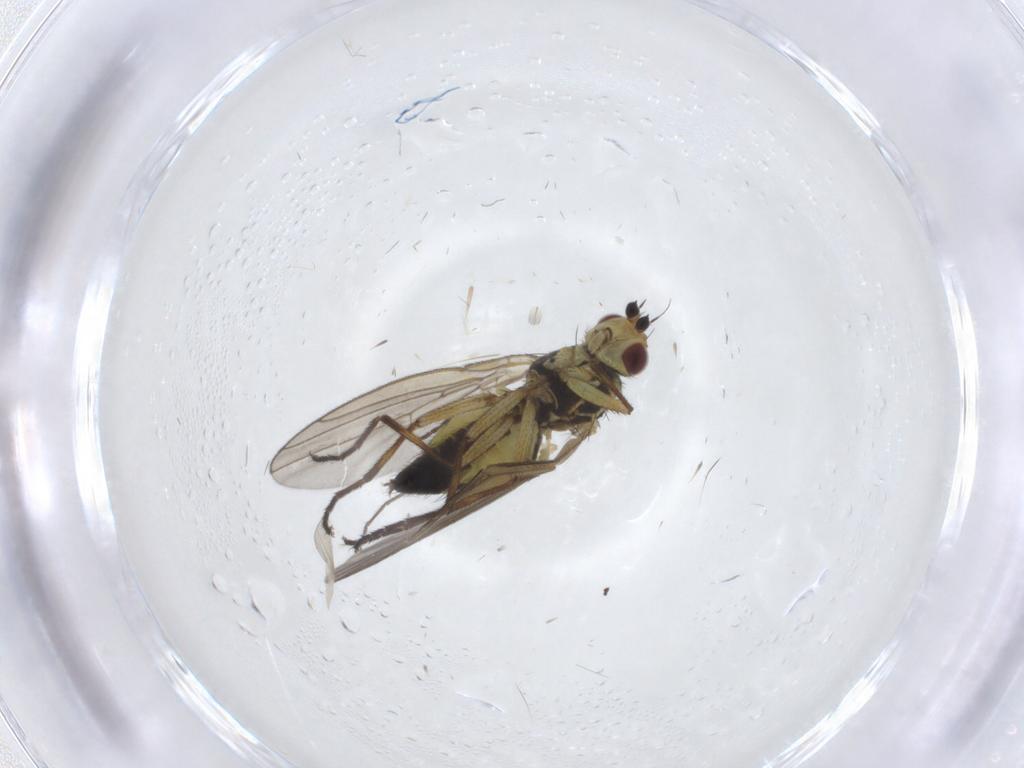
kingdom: Animalia
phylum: Arthropoda
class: Insecta
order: Diptera
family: Agromyzidae
